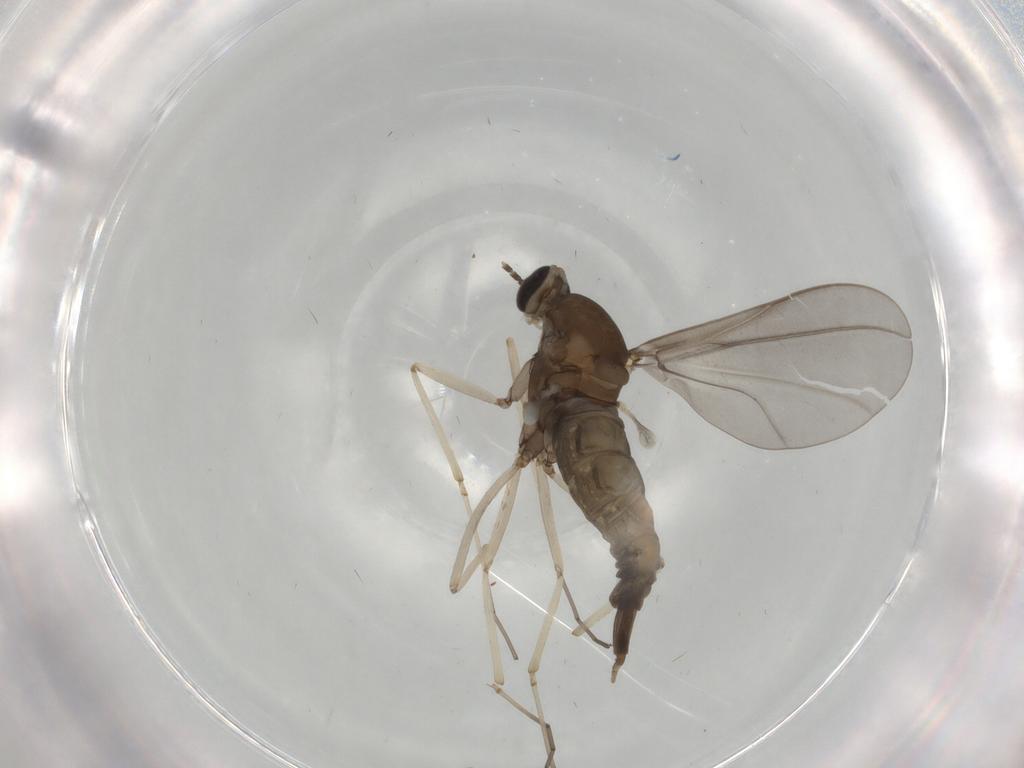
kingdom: Animalia
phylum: Arthropoda
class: Insecta
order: Diptera
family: Cecidomyiidae
